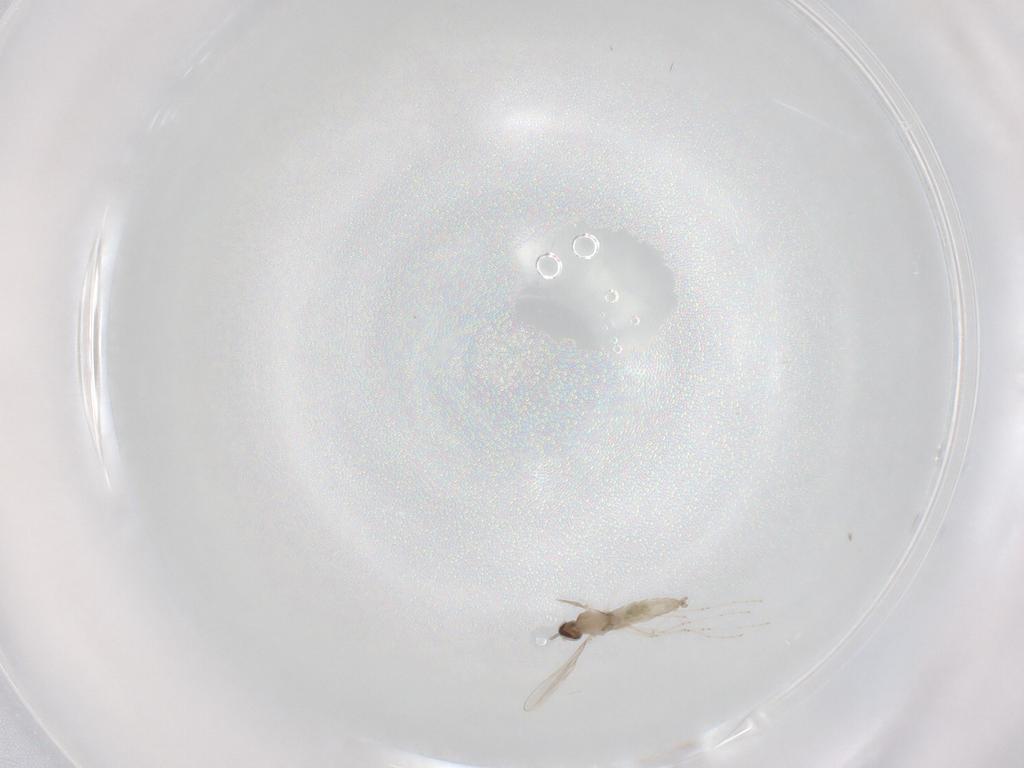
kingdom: Animalia
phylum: Arthropoda
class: Insecta
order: Diptera
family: Cecidomyiidae
